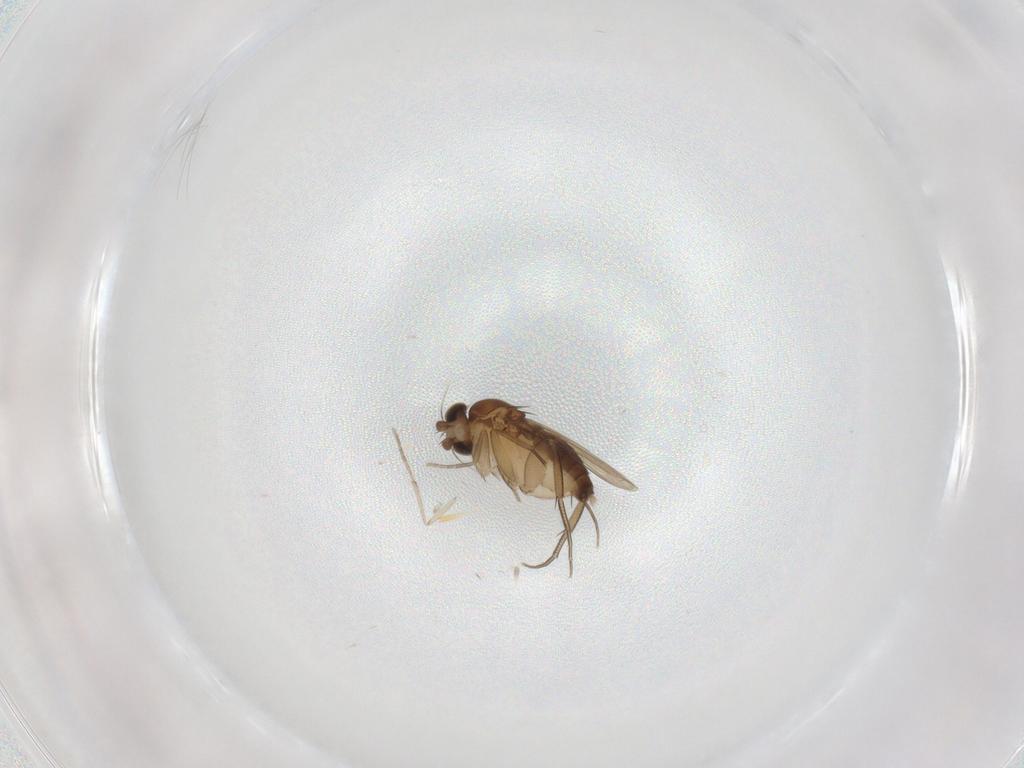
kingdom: Animalia
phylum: Arthropoda
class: Insecta
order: Diptera
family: Phoridae
